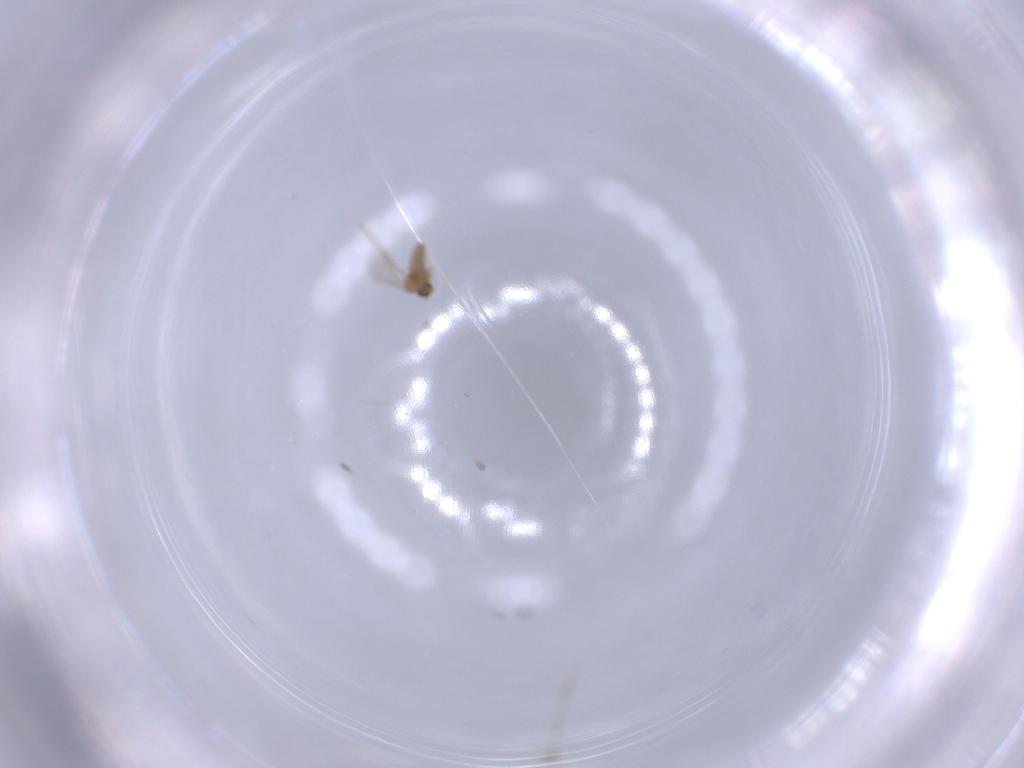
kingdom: Animalia
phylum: Arthropoda
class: Insecta
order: Diptera
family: Cecidomyiidae
